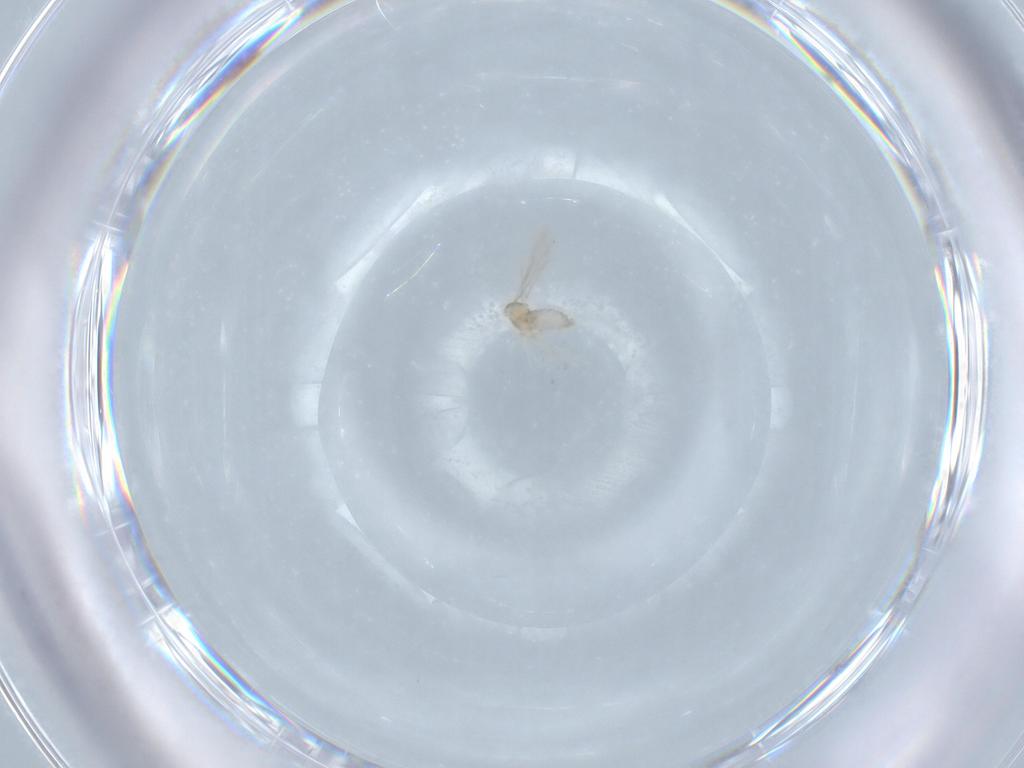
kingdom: Animalia
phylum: Arthropoda
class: Insecta
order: Diptera
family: Cecidomyiidae
